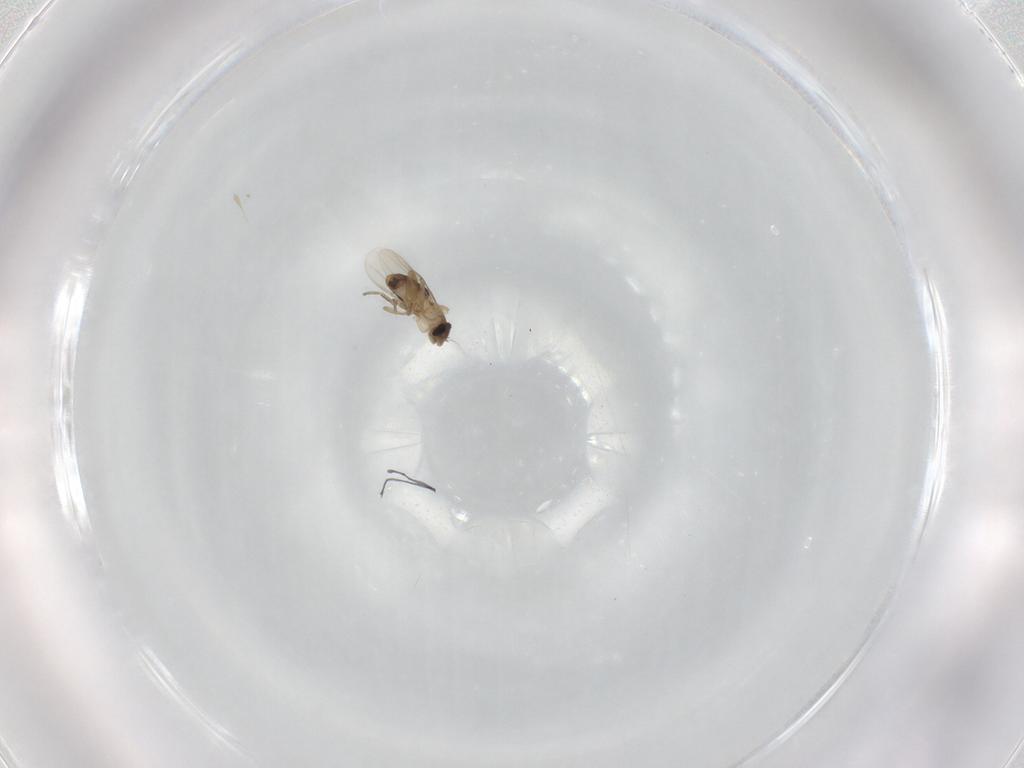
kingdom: Animalia
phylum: Arthropoda
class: Insecta
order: Diptera
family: Phoridae
